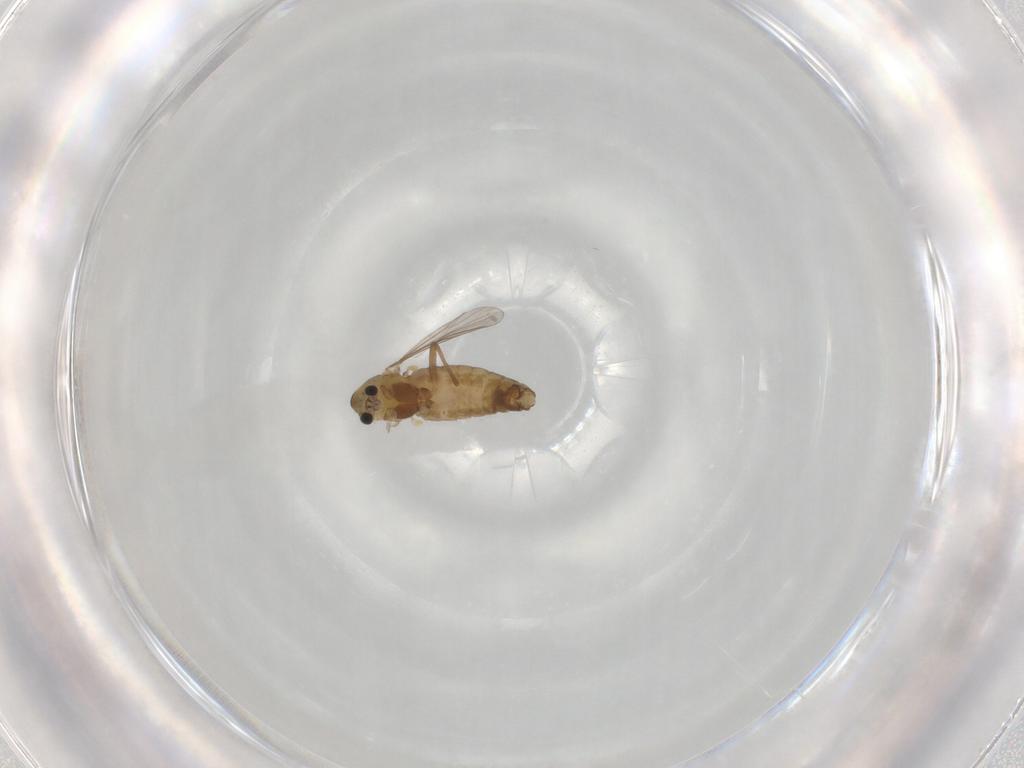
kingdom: Animalia
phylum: Arthropoda
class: Insecta
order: Diptera
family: Chironomidae
